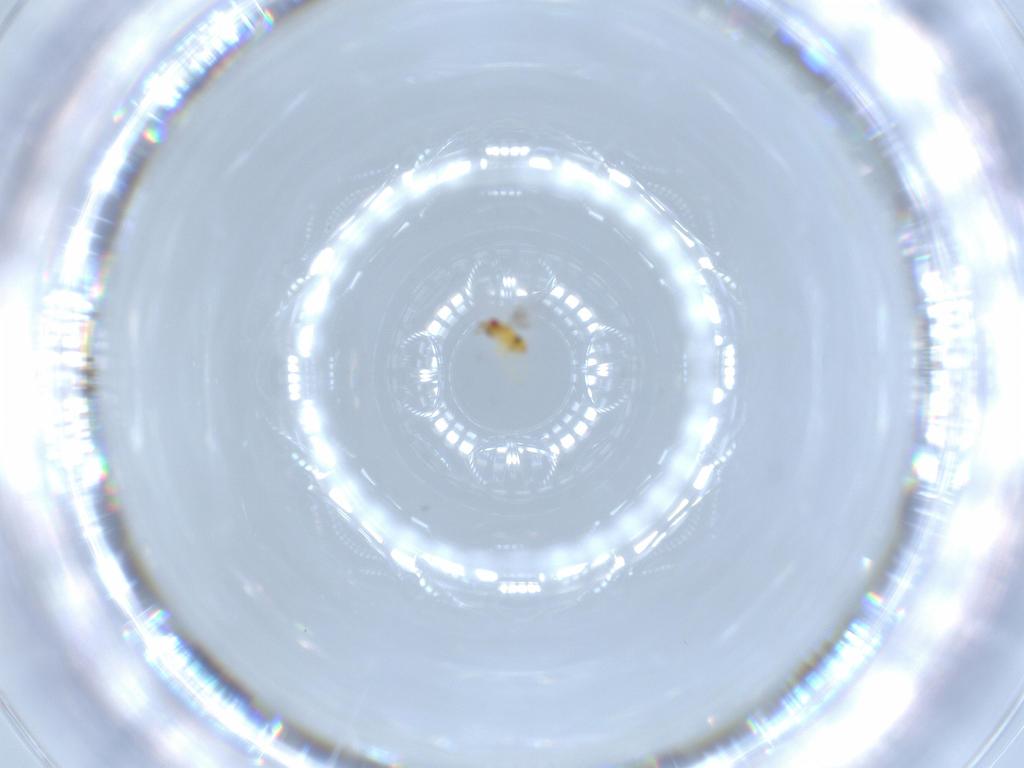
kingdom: Animalia
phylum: Arthropoda
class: Insecta
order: Hymenoptera
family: Trichogrammatidae
